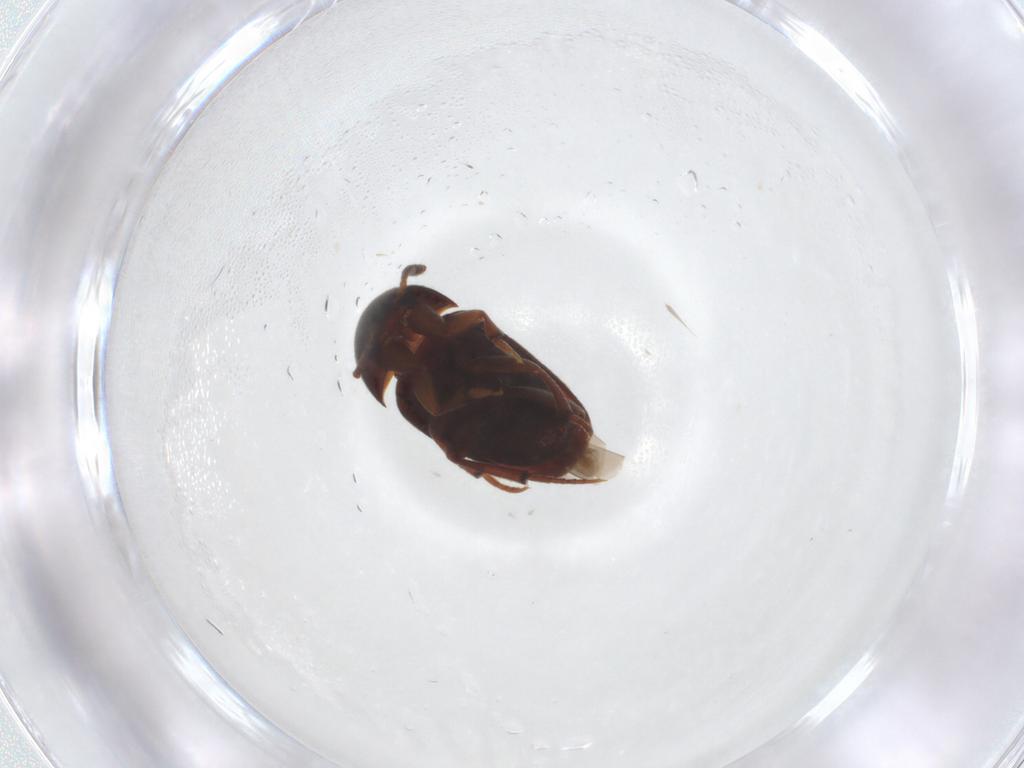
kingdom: Animalia
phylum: Arthropoda
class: Insecta
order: Coleoptera
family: Leiodidae
